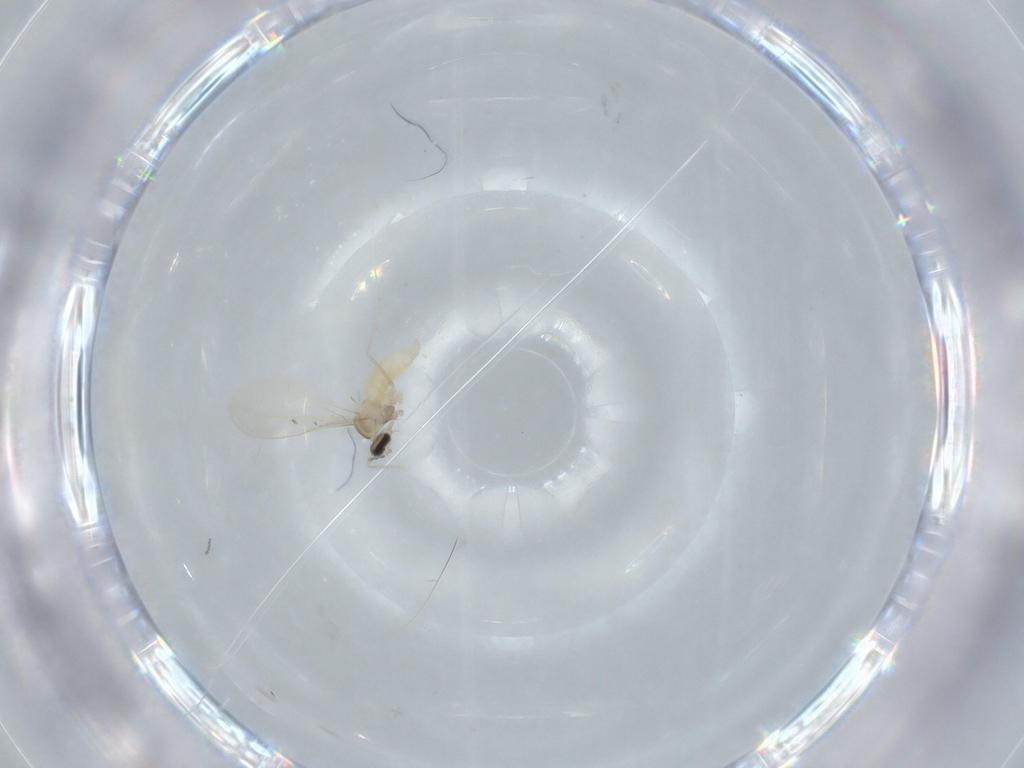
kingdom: Animalia
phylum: Arthropoda
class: Insecta
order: Diptera
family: Cecidomyiidae
